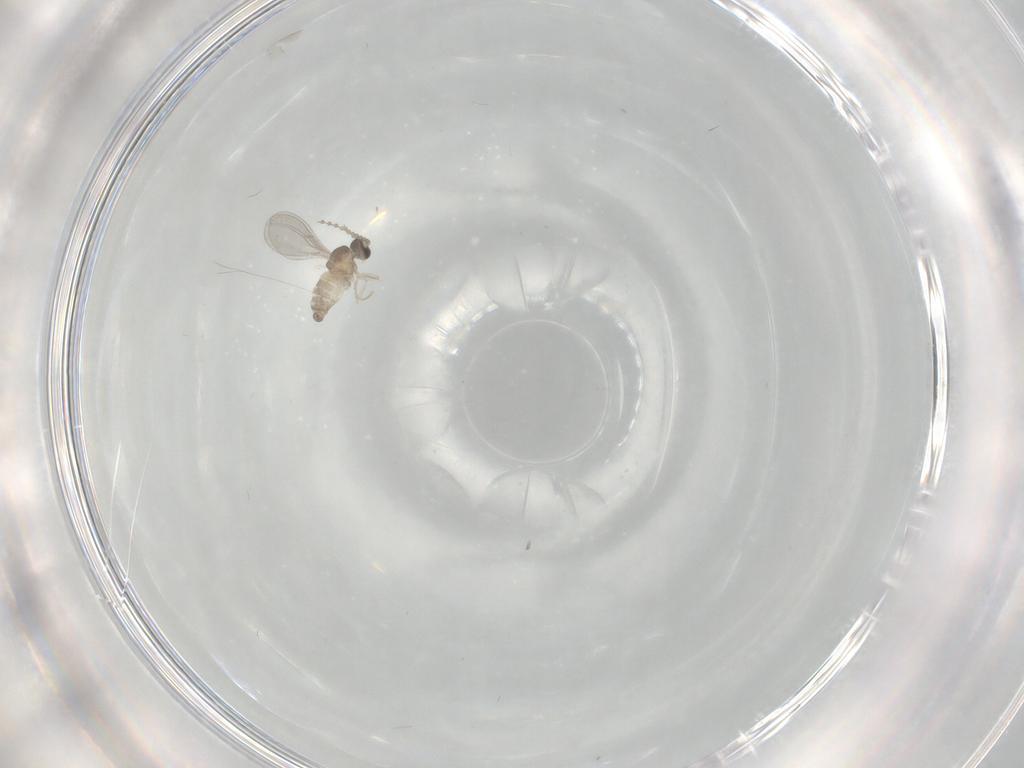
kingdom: Animalia
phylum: Arthropoda
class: Insecta
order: Diptera
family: Cecidomyiidae
